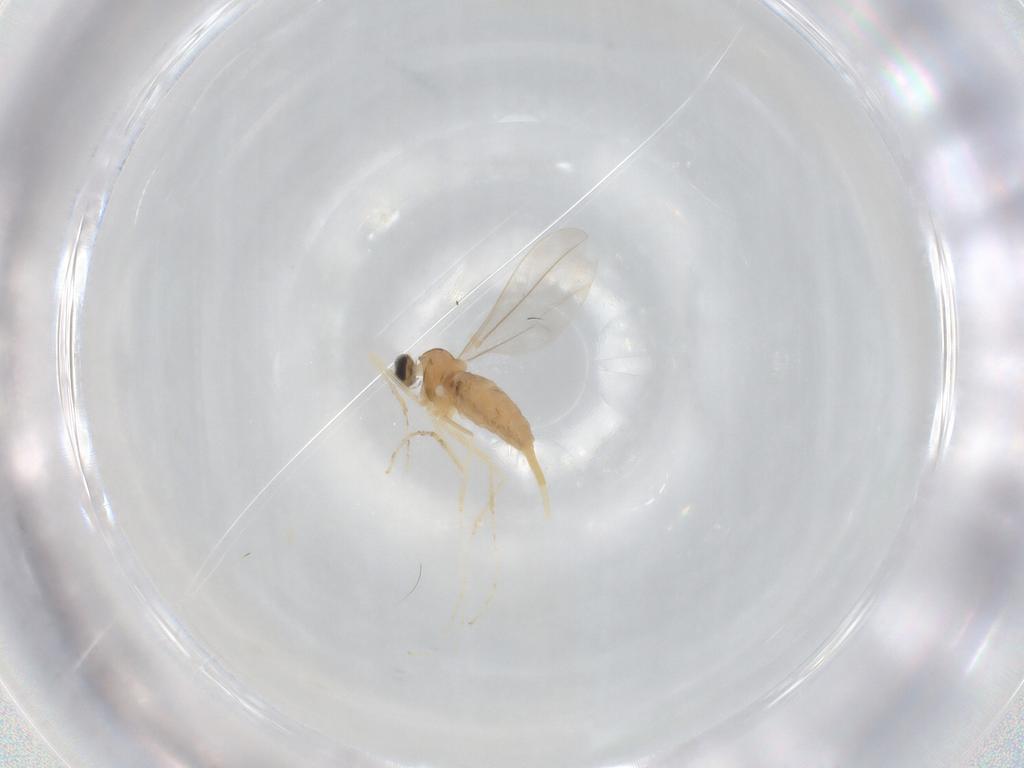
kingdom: Animalia
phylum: Arthropoda
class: Insecta
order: Diptera
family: Cecidomyiidae
